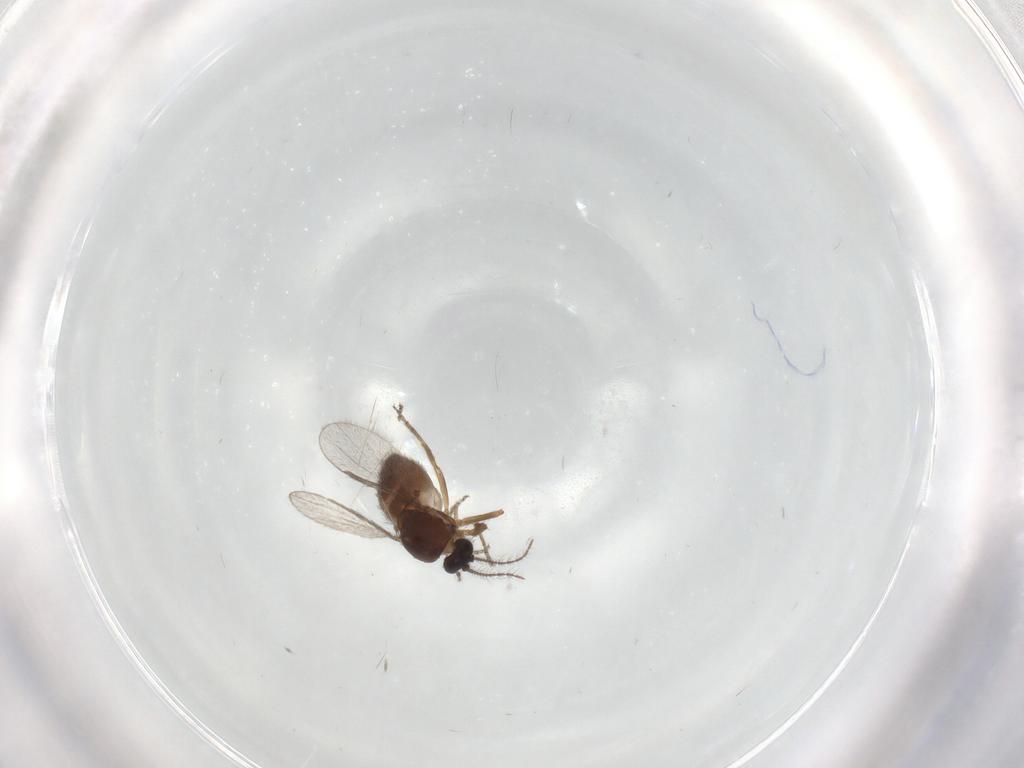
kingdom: Animalia
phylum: Arthropoda
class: Insecta
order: Diptera
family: Ceratopogonidae
